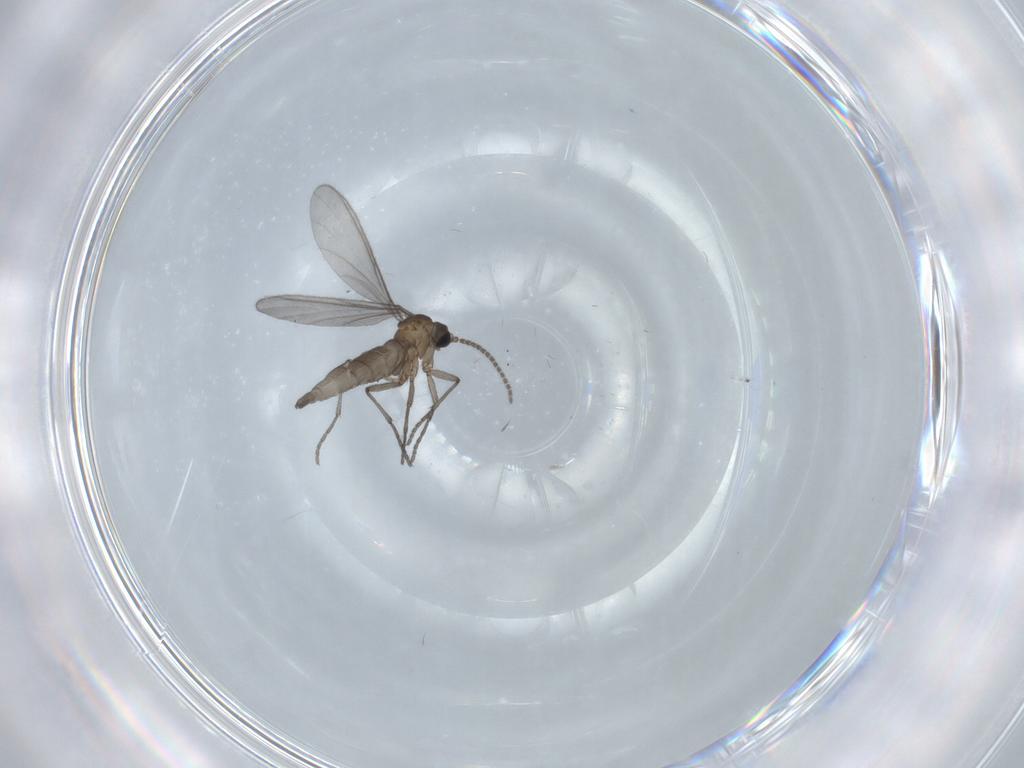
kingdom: Animalia
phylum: Arthropoda
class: Insecta
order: Diptera
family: Sciaridae
